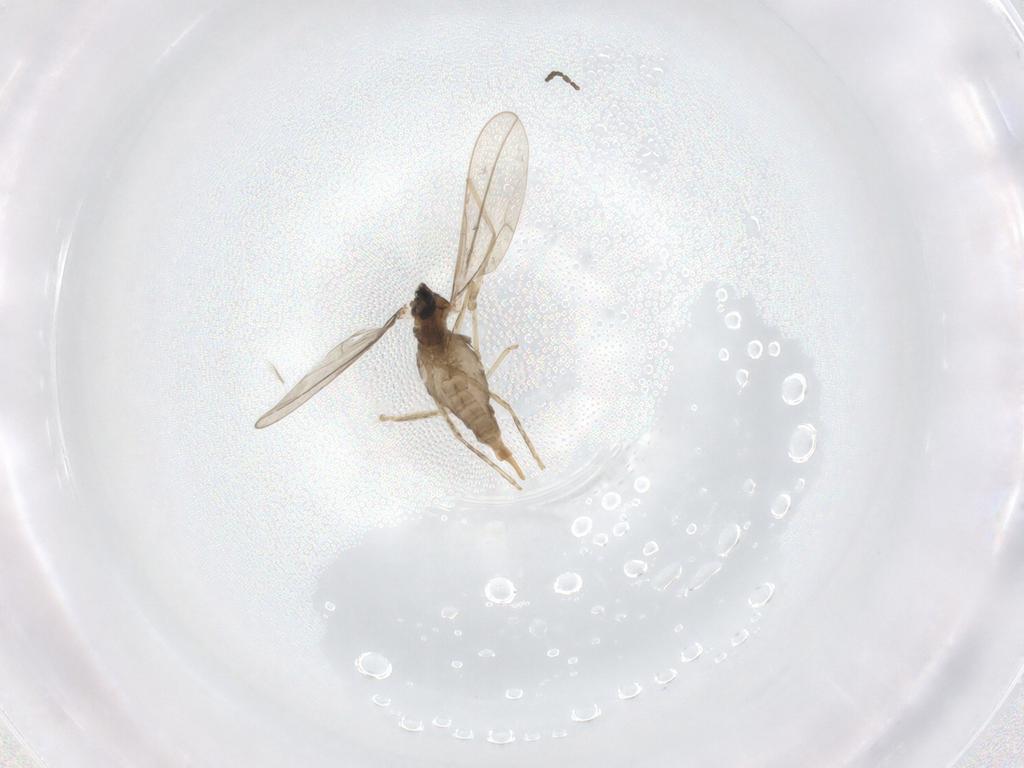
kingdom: Animalia
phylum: Arthropoda
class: Insecta
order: Diptera
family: Cecidomyiidae
